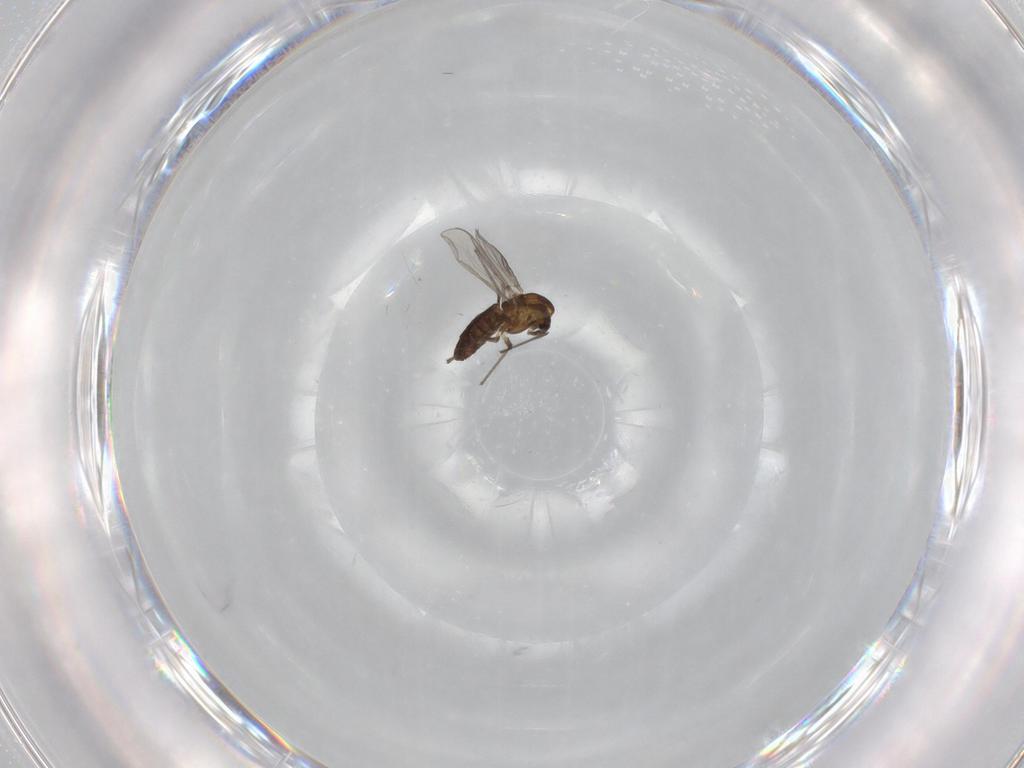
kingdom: Animalia
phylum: Arthropoda
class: Insecta
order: Diptera
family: Chironomidae
